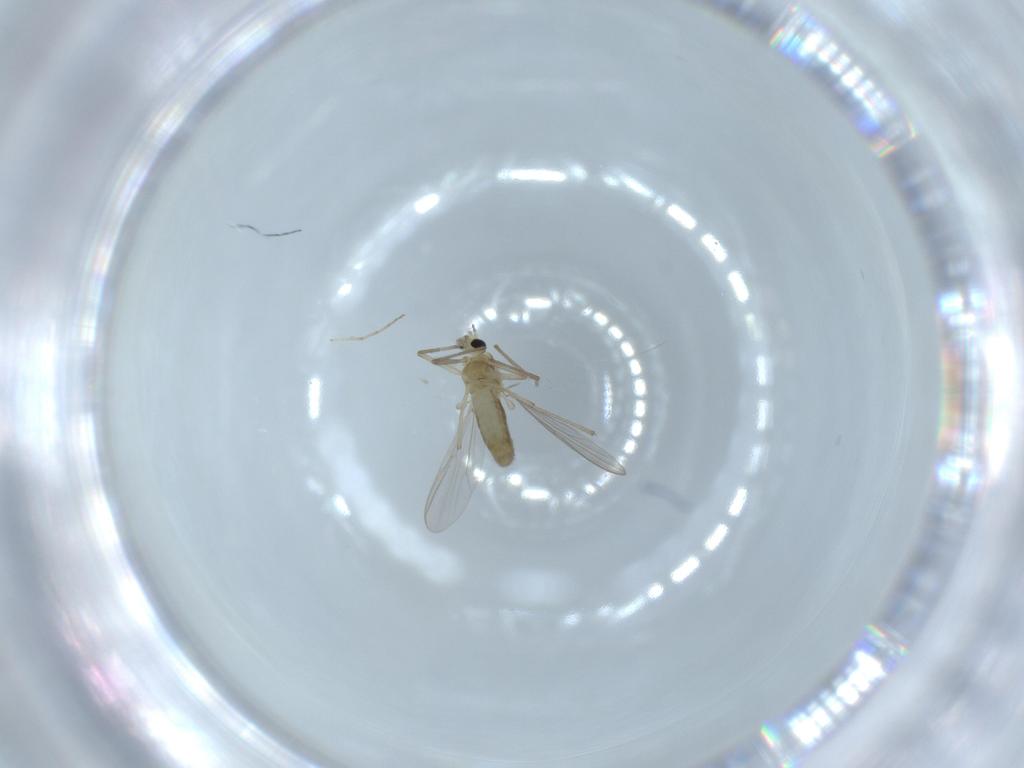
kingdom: Animalia
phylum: Arthropoda
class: Insecta
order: Diptera
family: Chironomidae
